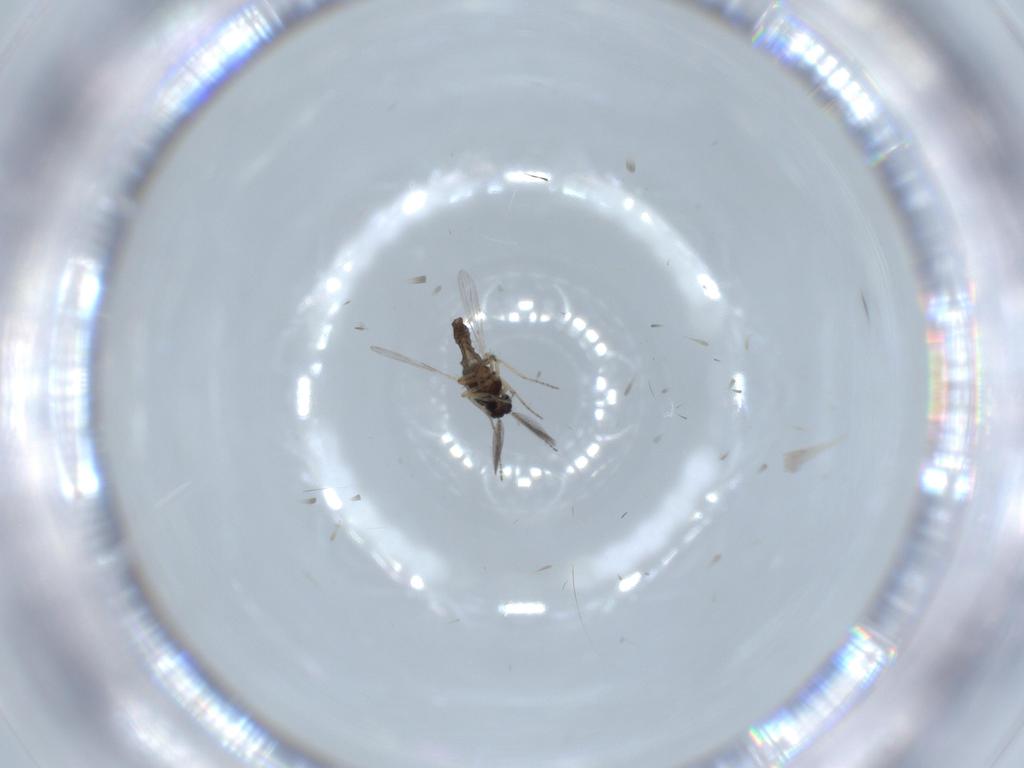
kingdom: Animalia
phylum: Arthropoda
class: Insecta
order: Diptera
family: Ceratopogonidae
